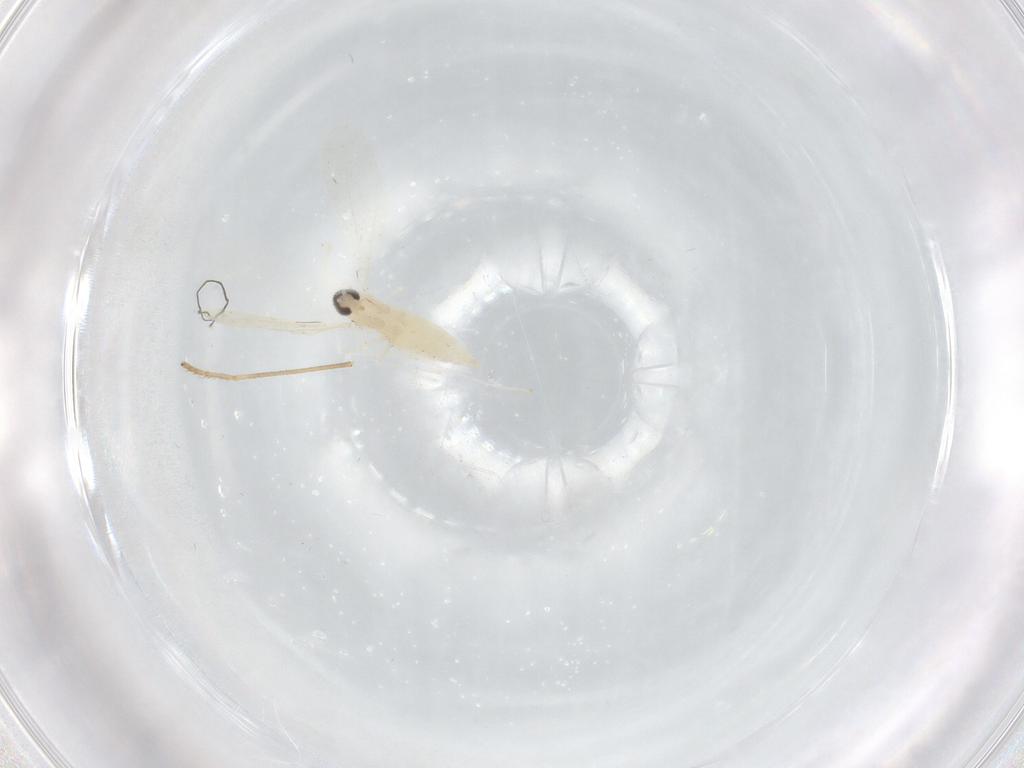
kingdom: Animalia
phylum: Arthropoda
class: Insecta
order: Diptera
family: Cecidomyiidae
